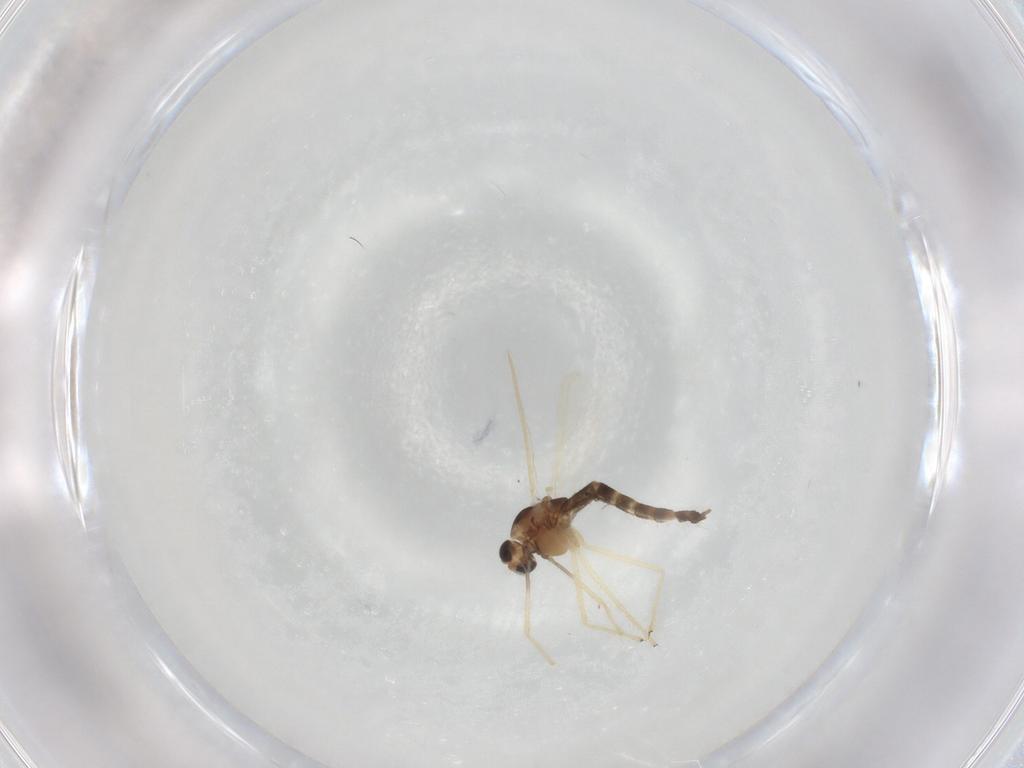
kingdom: Animalia
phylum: Arthropoda
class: Insecta
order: Diptera
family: Chironomidae
